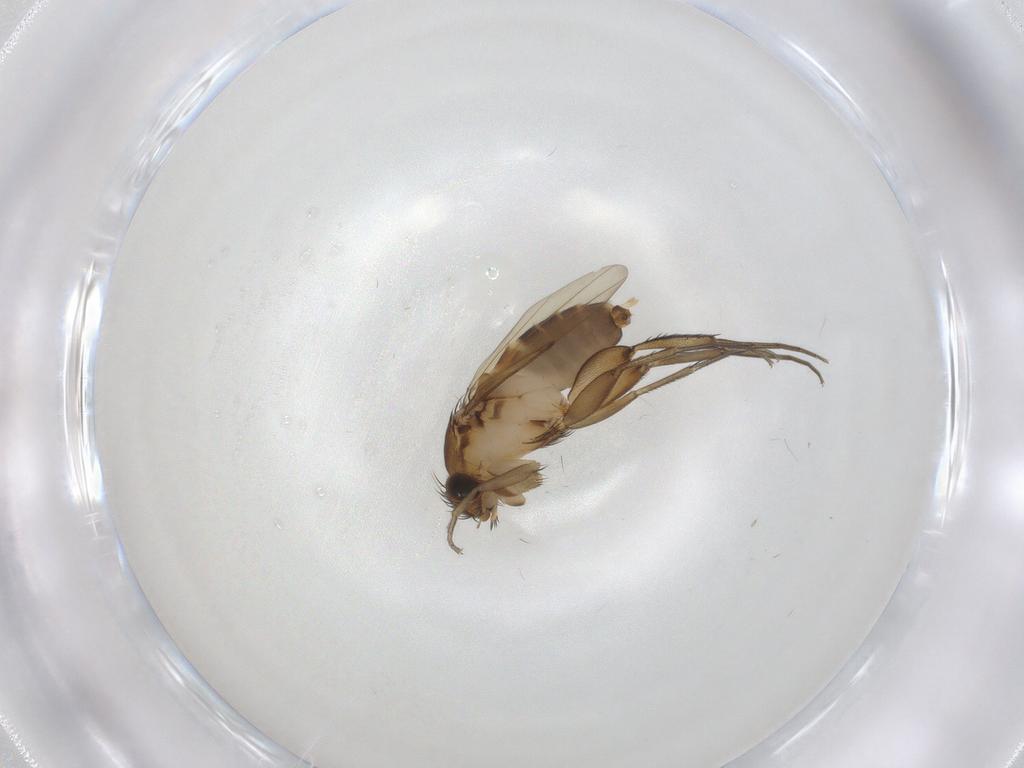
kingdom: Animalia
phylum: Arthropoda
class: Insecta
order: Diptera
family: Phoridae
